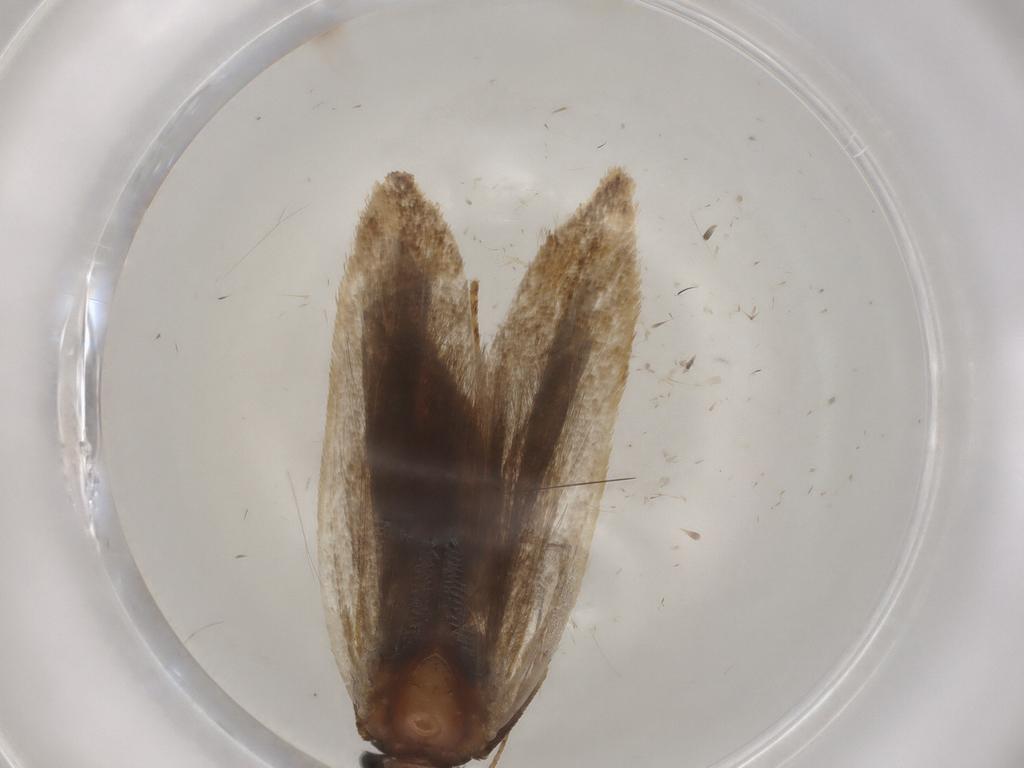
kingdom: Animalia
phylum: Arthropoda
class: Insecta
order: Lepidoptera
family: Gelechiidae
